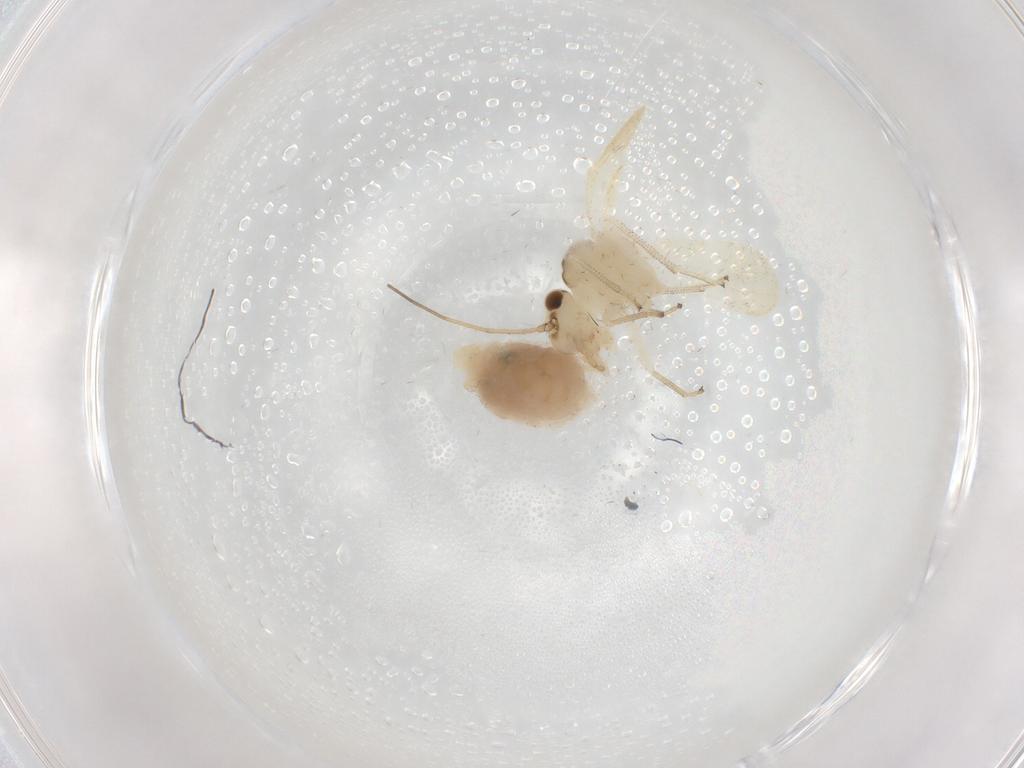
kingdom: Animalia
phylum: Arthropoda
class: Insecta
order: Psocodea
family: Caeciliusidae
